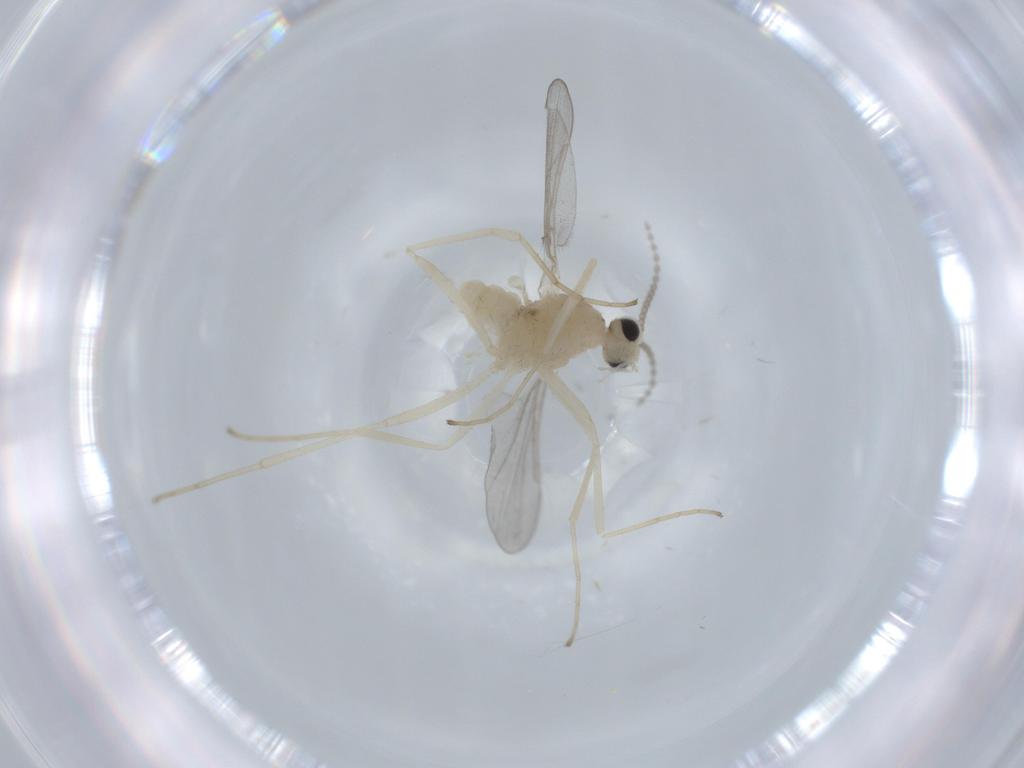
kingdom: Animalia
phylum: Arthropoda
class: Insecta
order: Diptera
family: Cecidomyiidae
